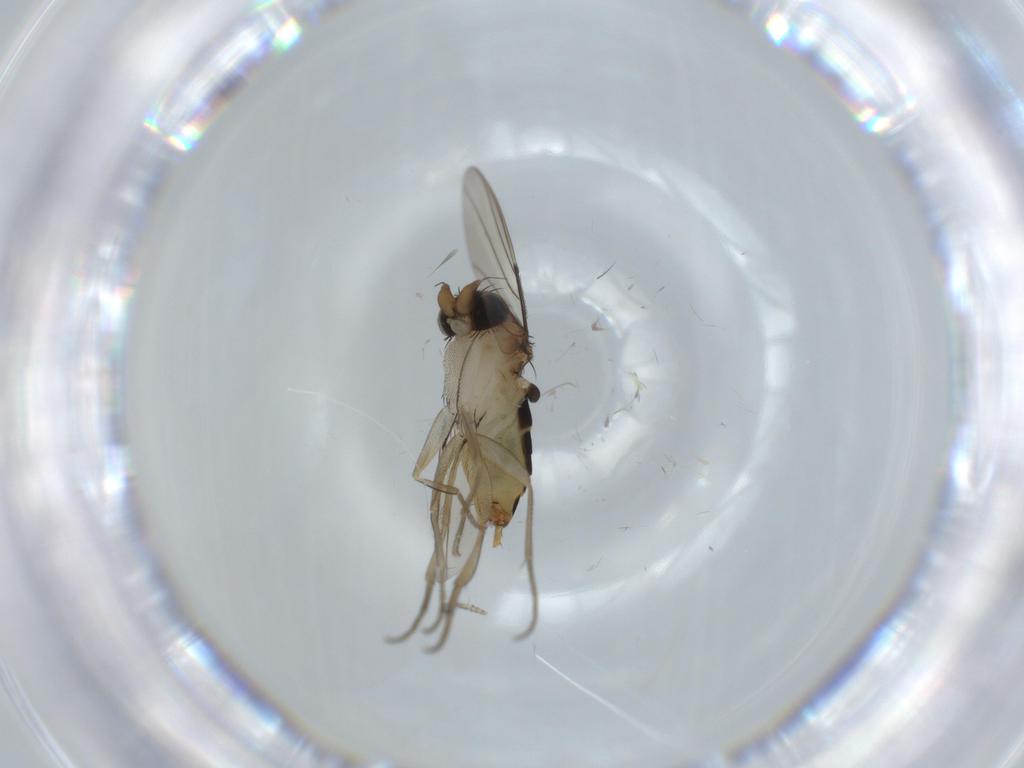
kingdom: Animalia
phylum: Arthropoda
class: Insecta
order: Diptera
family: Phoridae
